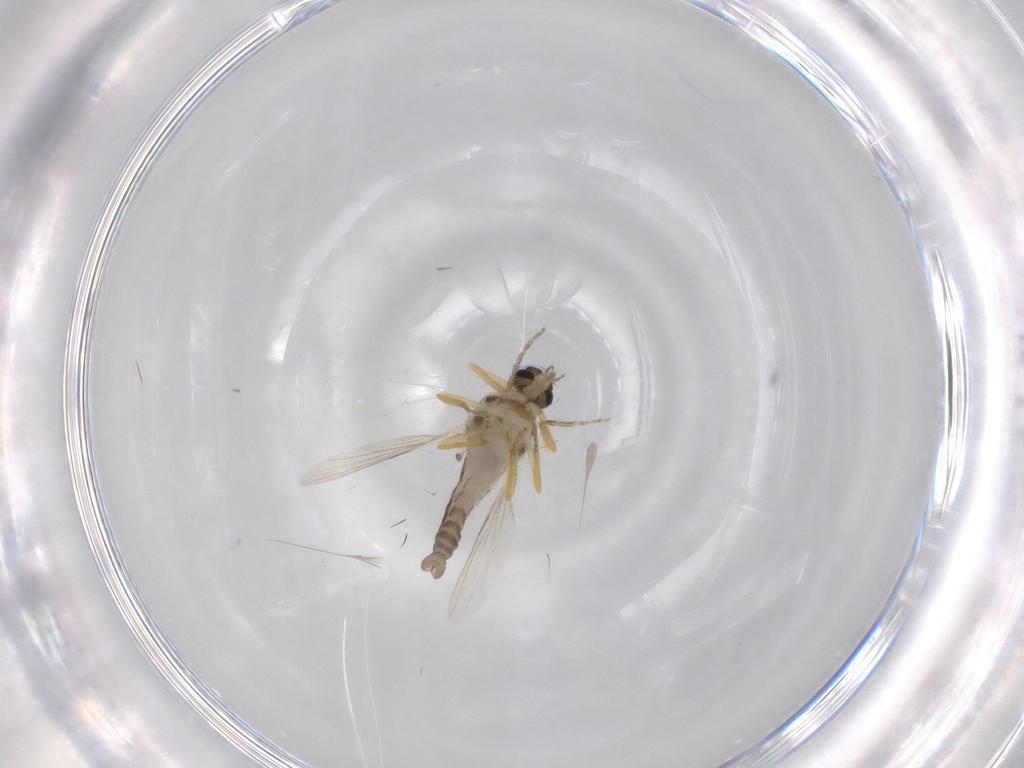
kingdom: Animalia
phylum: Arthropoda
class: Insecta
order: Diptera
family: Ceratopogonidae
